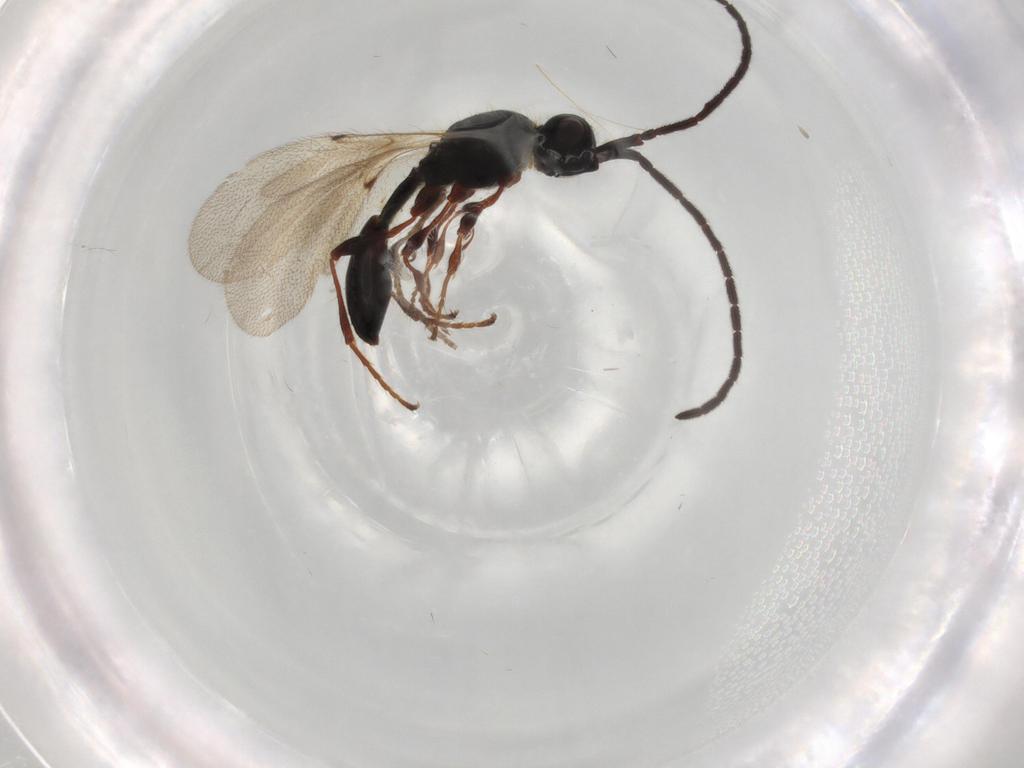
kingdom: Animalia
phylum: Arthropoda
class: Insecta
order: Hymenoptera
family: Diapriidae
